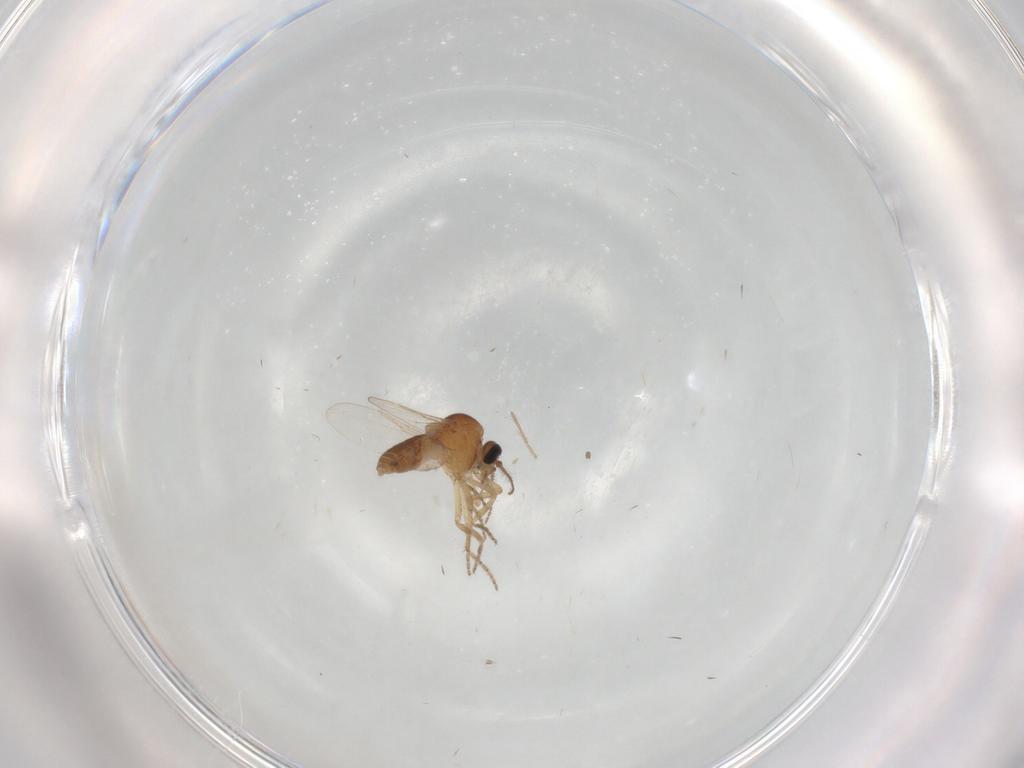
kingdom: Animalia
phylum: Arthropoda
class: Insecta
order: Diptera
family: Ceratopogonidae
